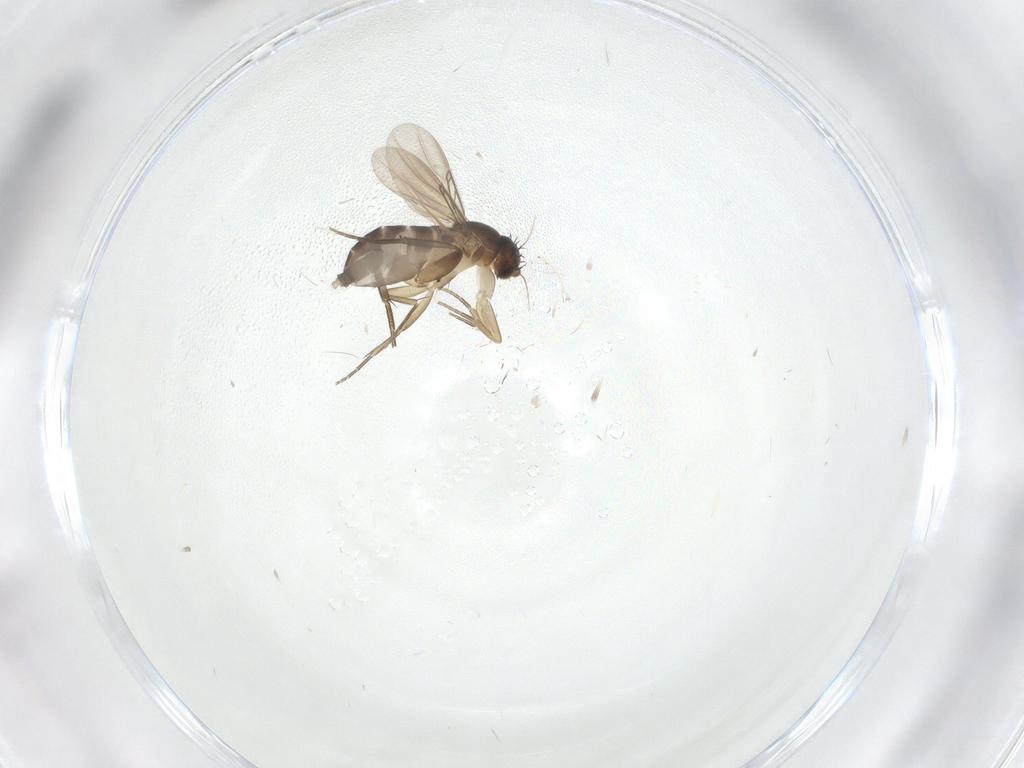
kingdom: Animalia
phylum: Arthropoda
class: Insecta
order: Diptera
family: Phoridae
